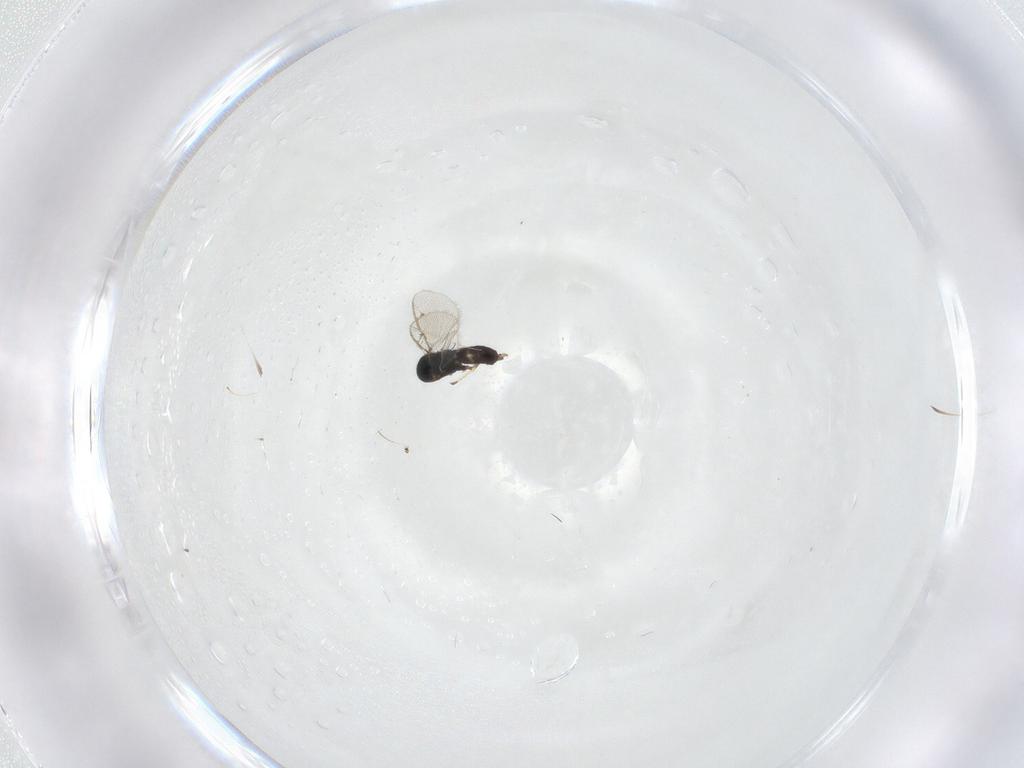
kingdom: Animalia
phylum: Arthropoda
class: Insecta
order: Hymenoptera
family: Pteromalidae
